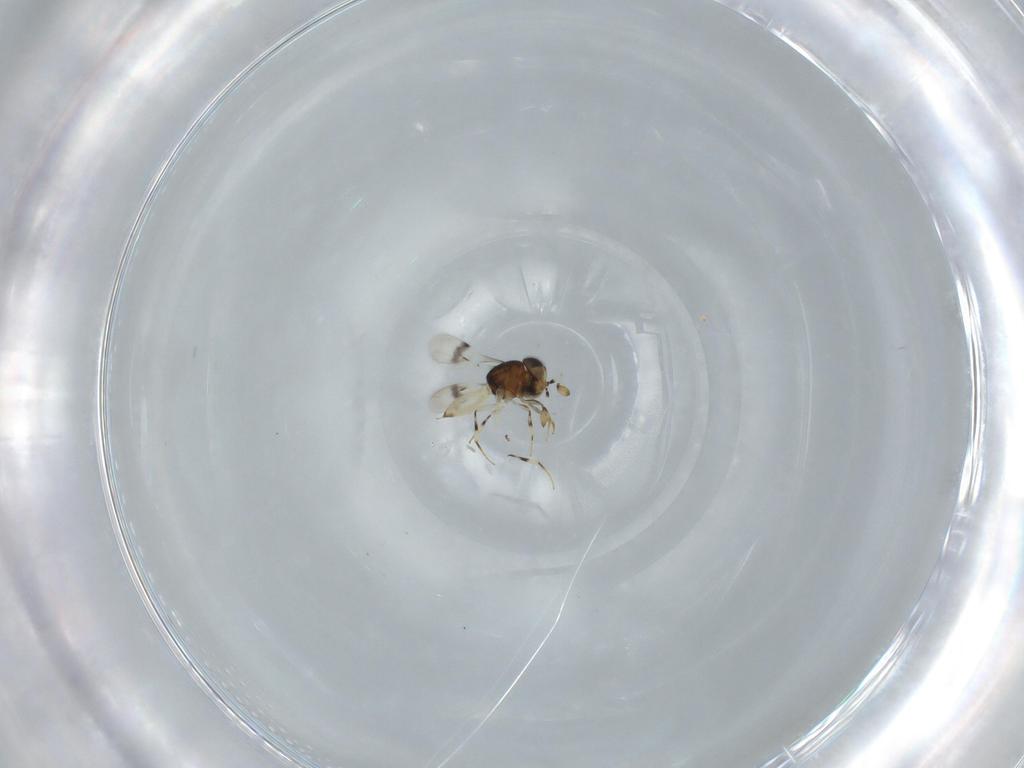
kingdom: Animalia
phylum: Arthropoda
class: Insecta
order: Hymenoptera
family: Scelionidae
